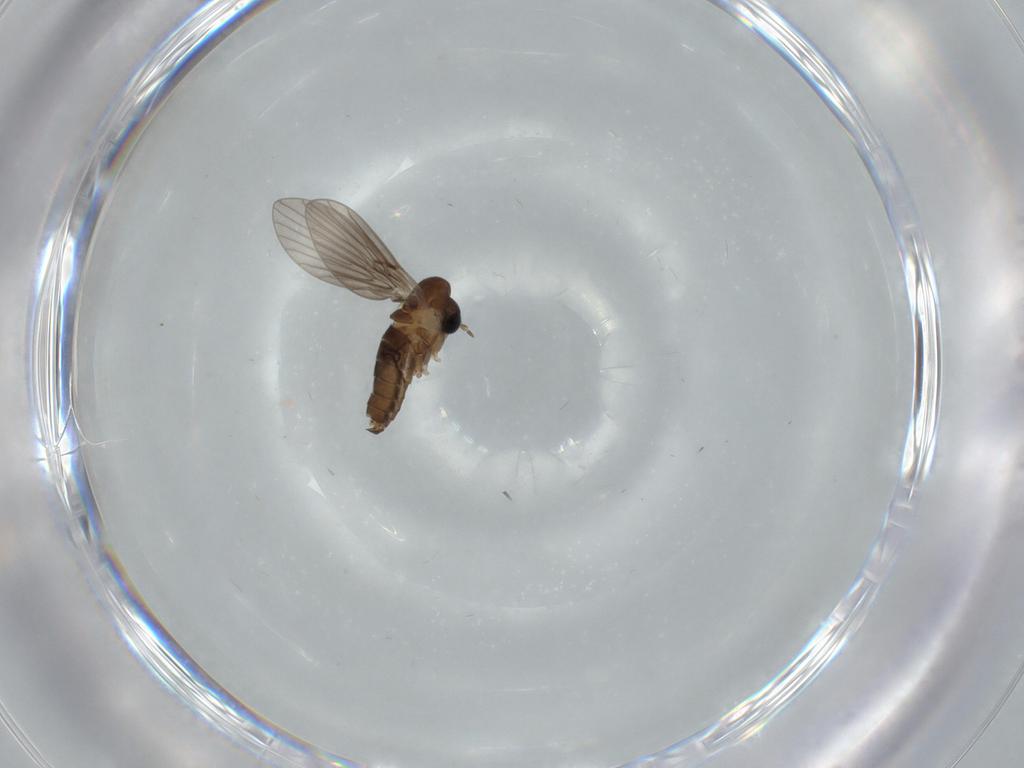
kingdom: Animalia
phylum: Arthropoda
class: Insecta
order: Diptera
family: Psychodidae
